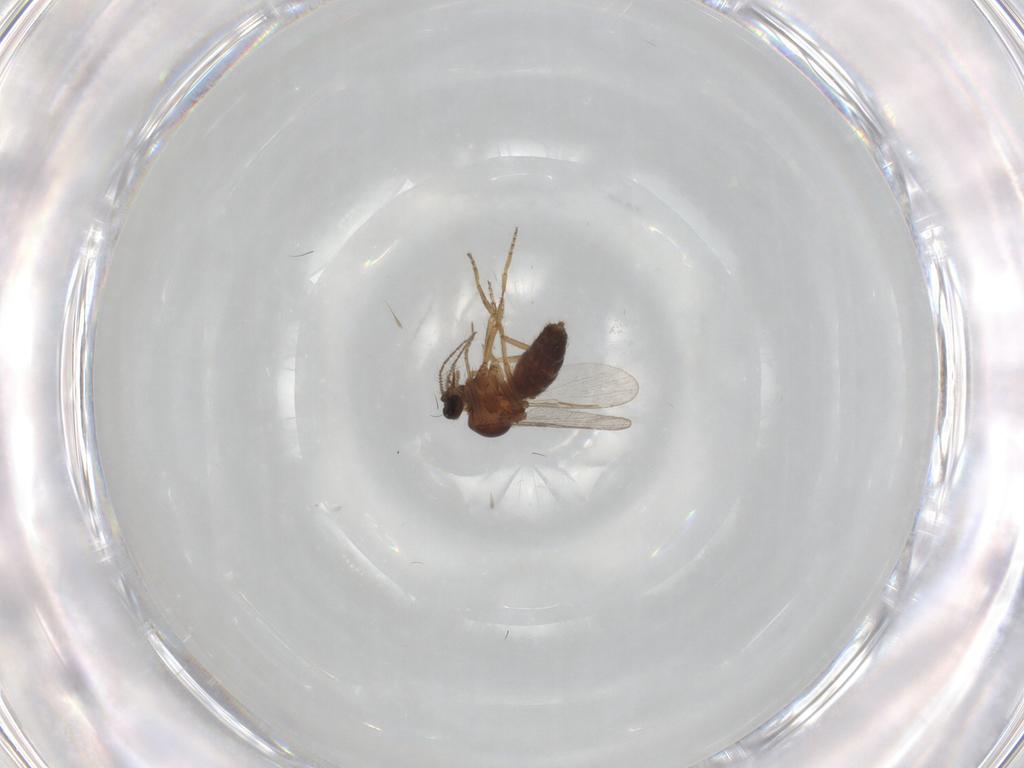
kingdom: Animalia
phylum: Arthropoda
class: Insecta
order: Diptera
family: Ceratopogonidae
